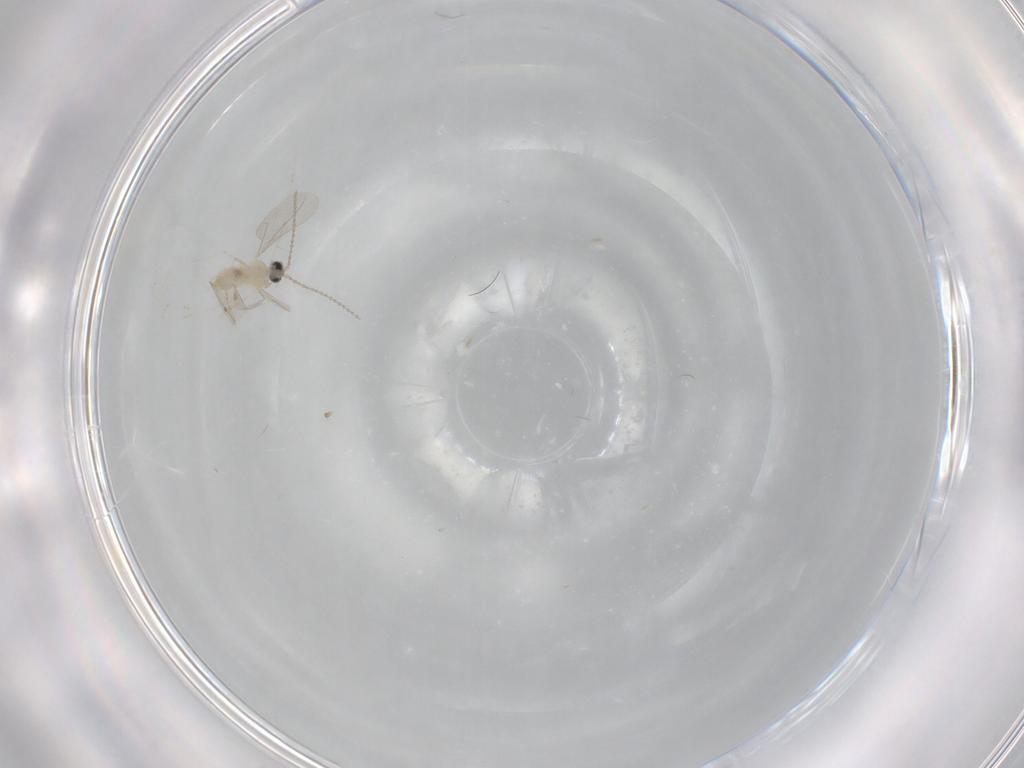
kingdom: Animalia
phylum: Arthropoda
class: Insecta
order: Diptera
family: Cecidomyiidae
